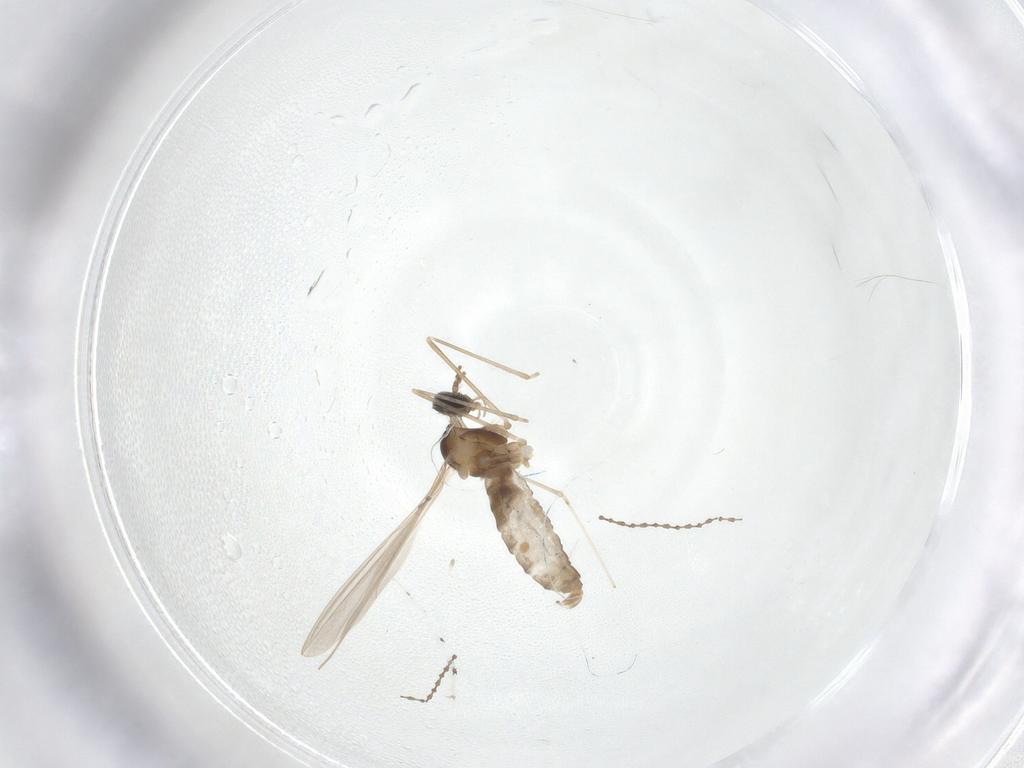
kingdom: Animalia
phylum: Arthropoda
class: Insecta
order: Diptera
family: Cecidomyiidae
